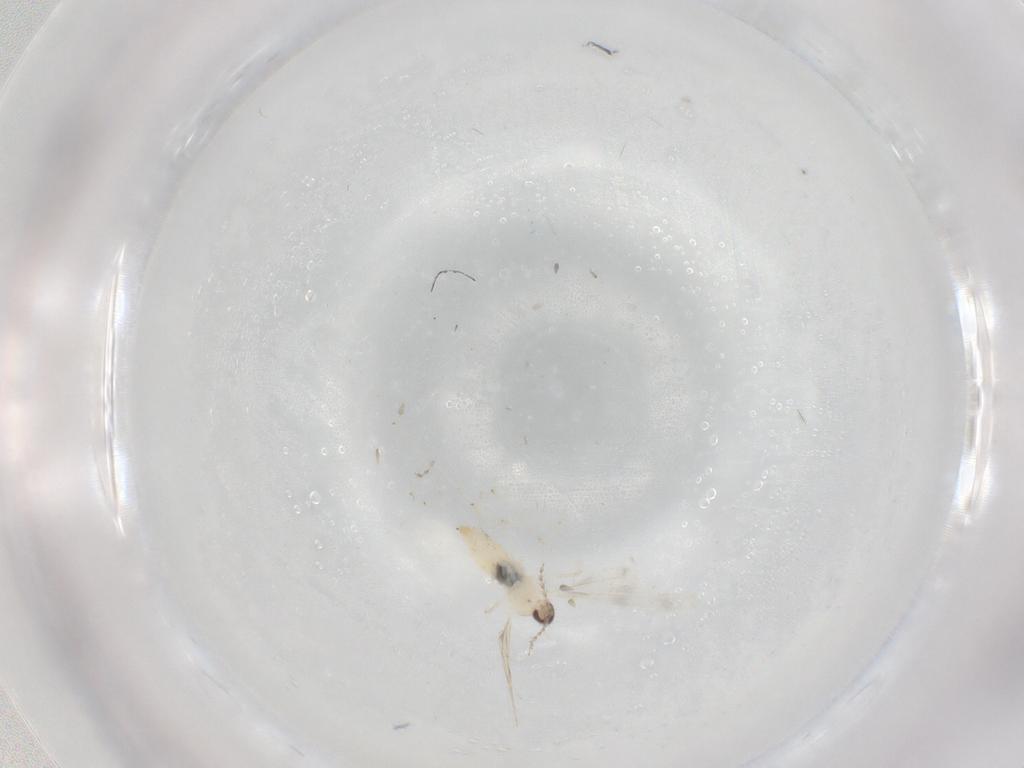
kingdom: Animalia
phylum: Arthropoda
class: Insecta
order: Diptera
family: Cecidomyiidae
